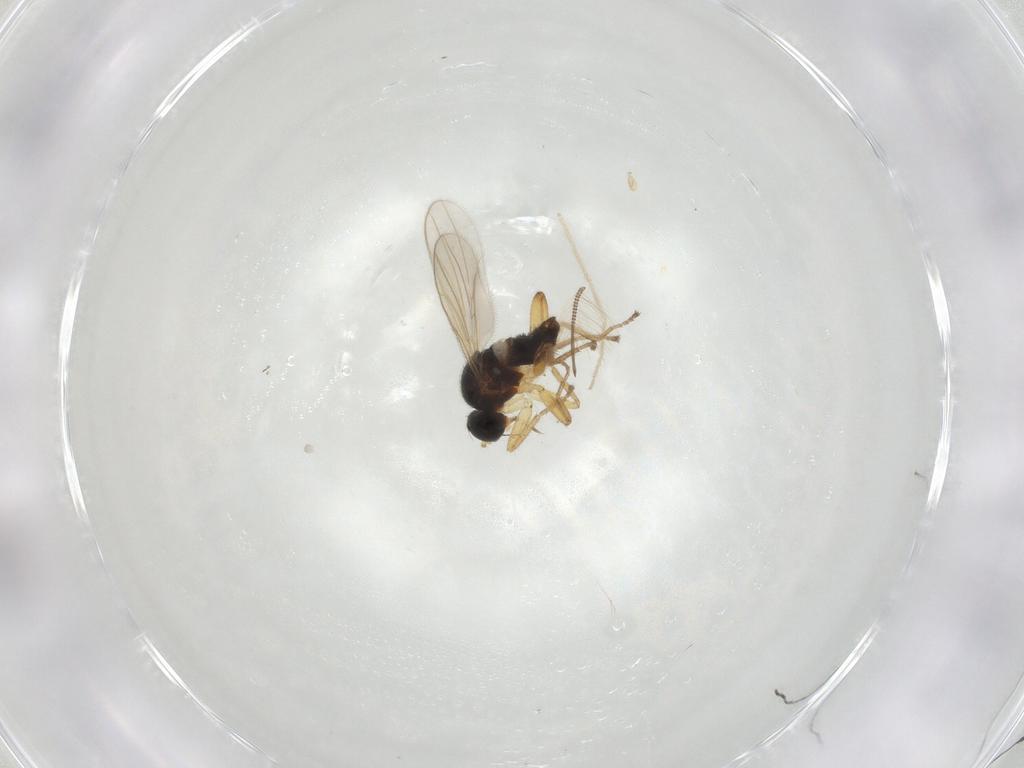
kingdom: Animalia
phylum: Arthropoda
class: Insecta
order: Diptera
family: Hybotidae
